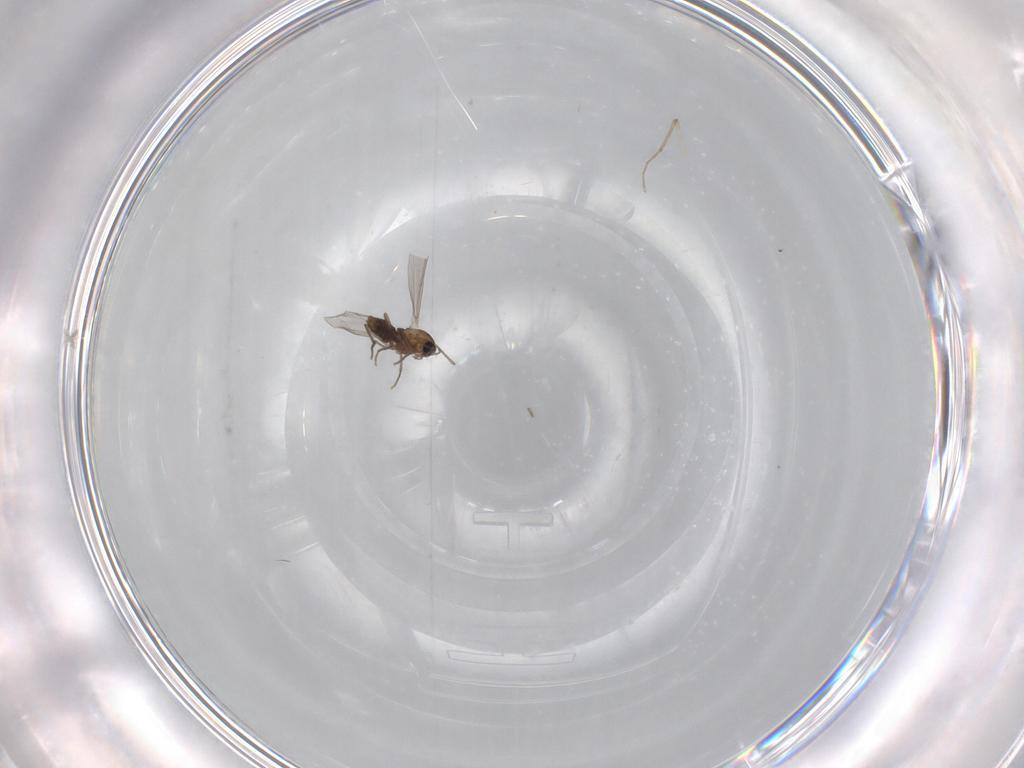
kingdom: Animalia
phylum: Arthropoda
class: Insecta
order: Diptera
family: Chironomidae
